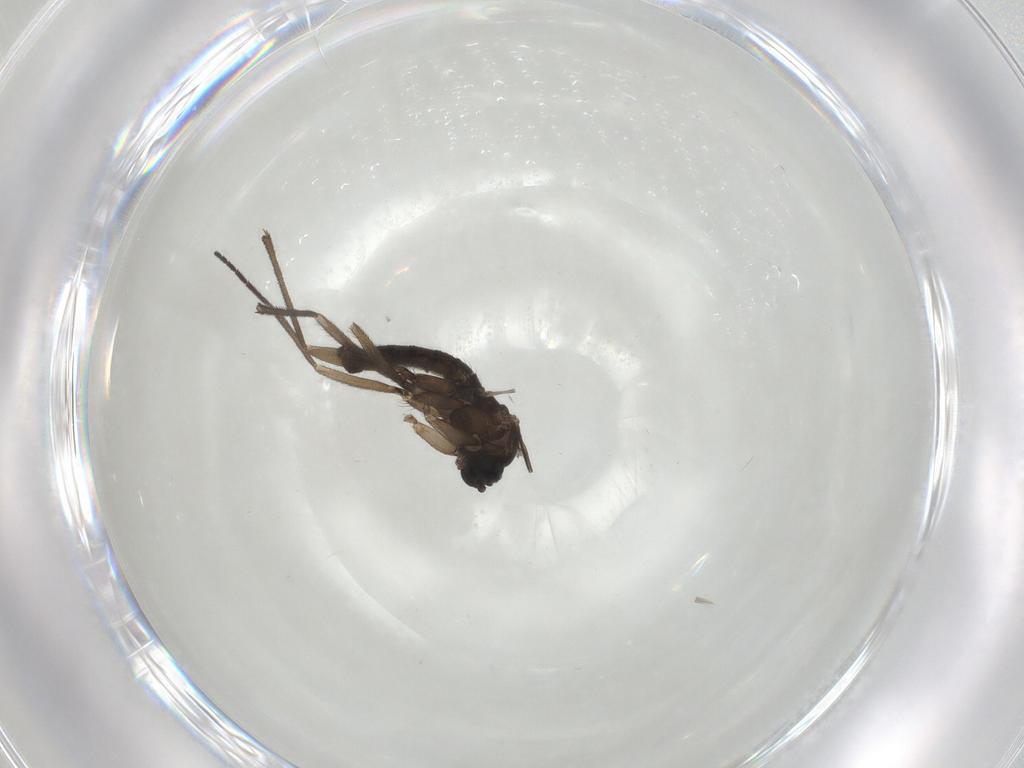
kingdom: Animalia
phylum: Arthropoda
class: Insecta
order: Diptera
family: Sciaridae
